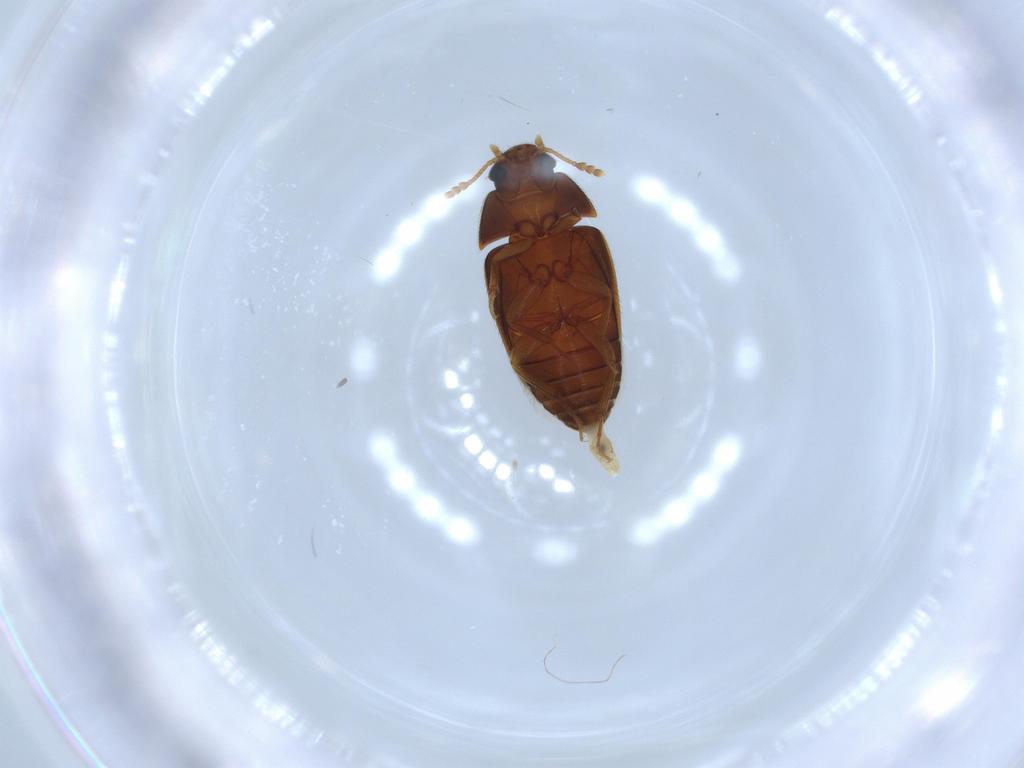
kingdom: Animalia
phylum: Arthropoda
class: Insecta
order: Coleoptera
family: Mycetophagidae
